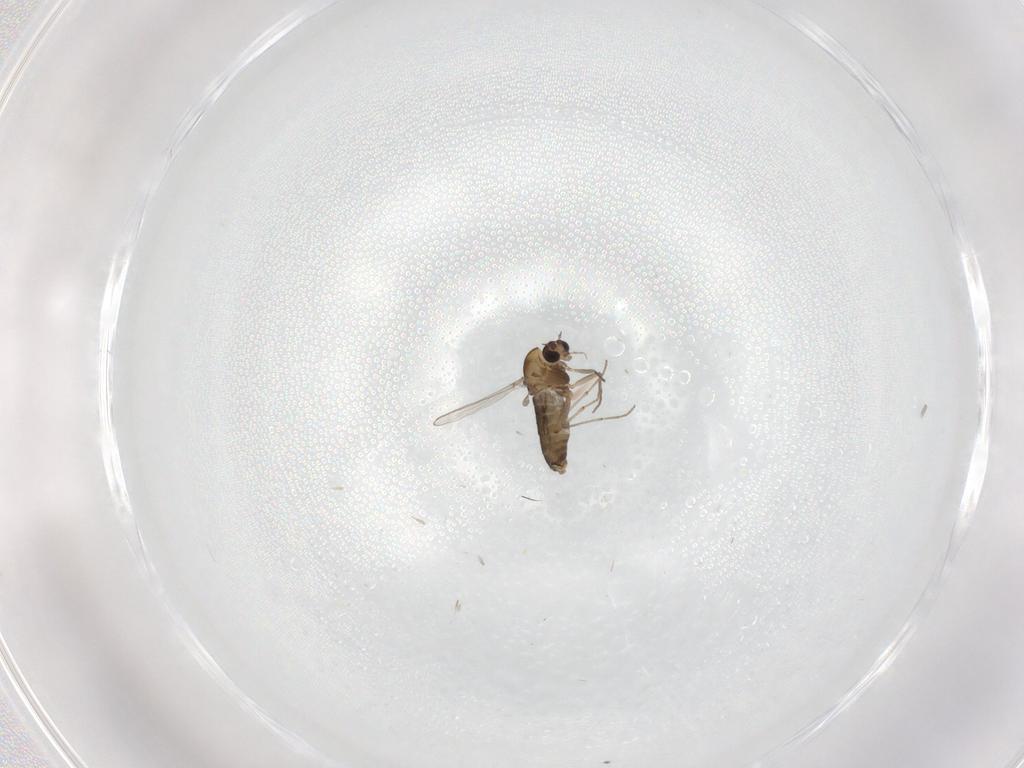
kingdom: Animalia
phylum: Arthropoda
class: Insecta
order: Diptera
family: Chironomidae
